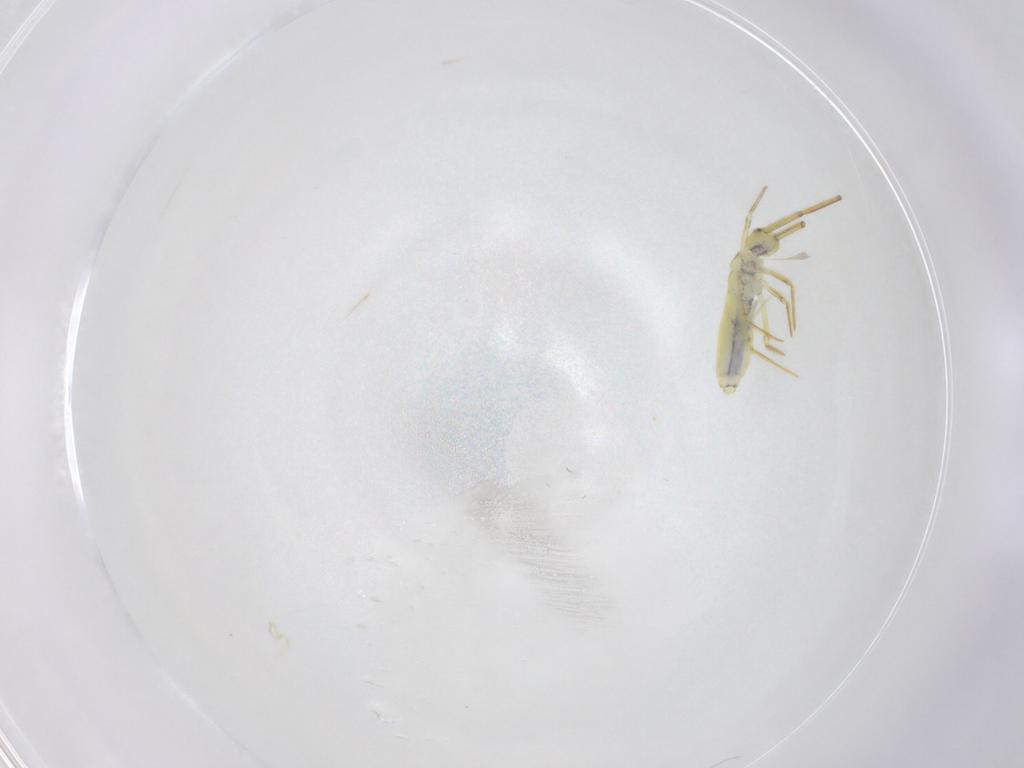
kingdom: Animalia
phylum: Arthropoda
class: Collembola
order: Entomobryomorpha
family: Entomobryidae
